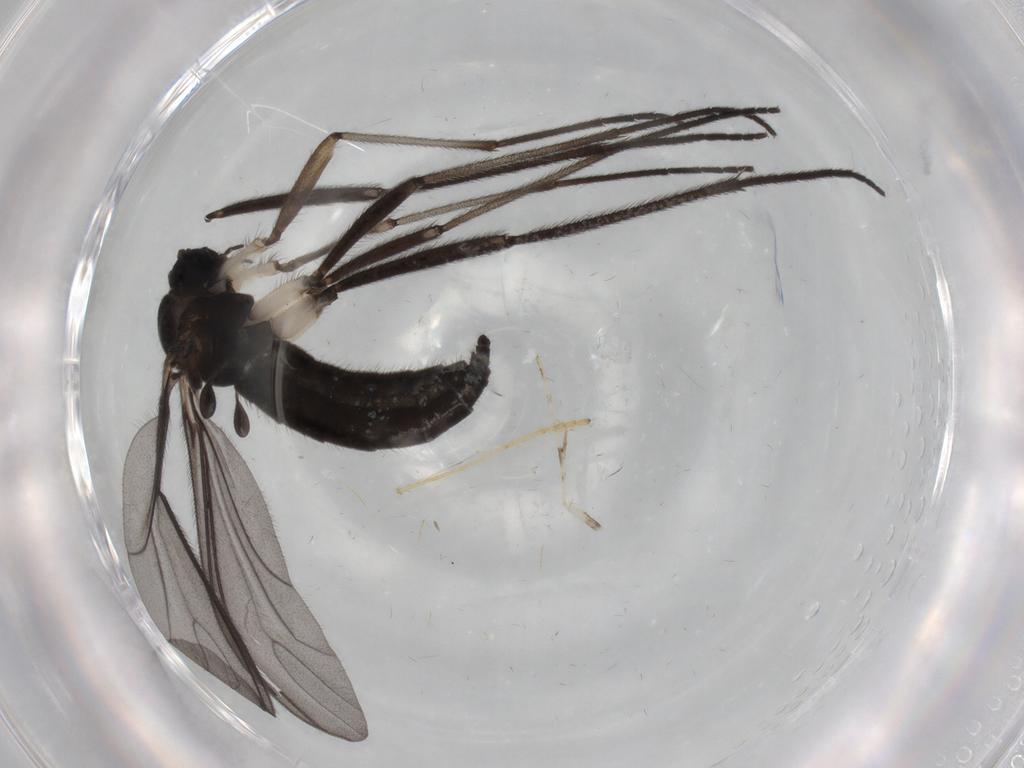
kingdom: Animalia
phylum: Arthropoda
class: Insecta
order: Diptera
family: Sciaridae
